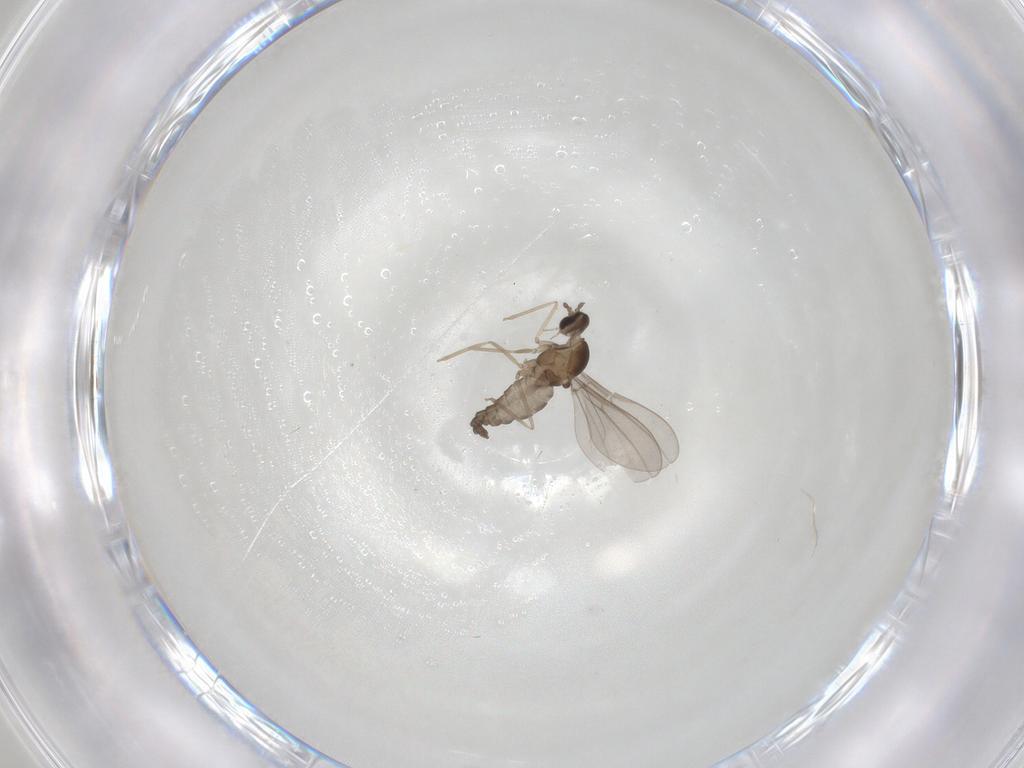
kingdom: Animalia
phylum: Arthropoda
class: Insecta
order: Diptera
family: Cecidomyiidae
